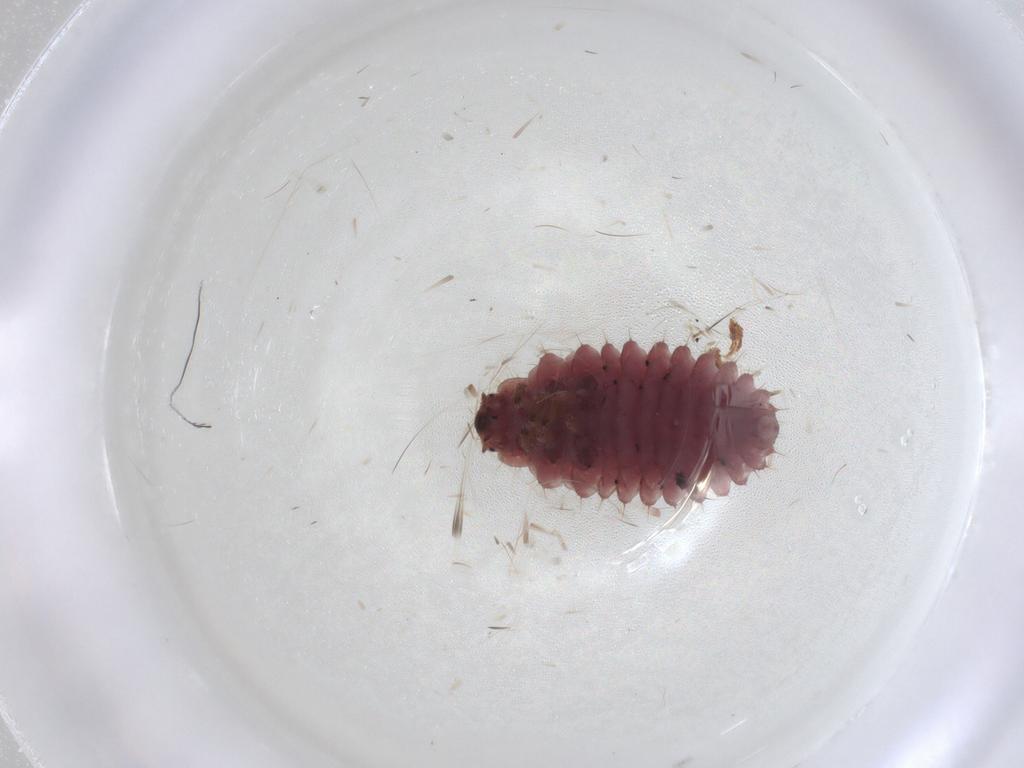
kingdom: Animalia
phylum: Arthropoda
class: Insecta
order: Coleoptera
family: Coccinellidae
